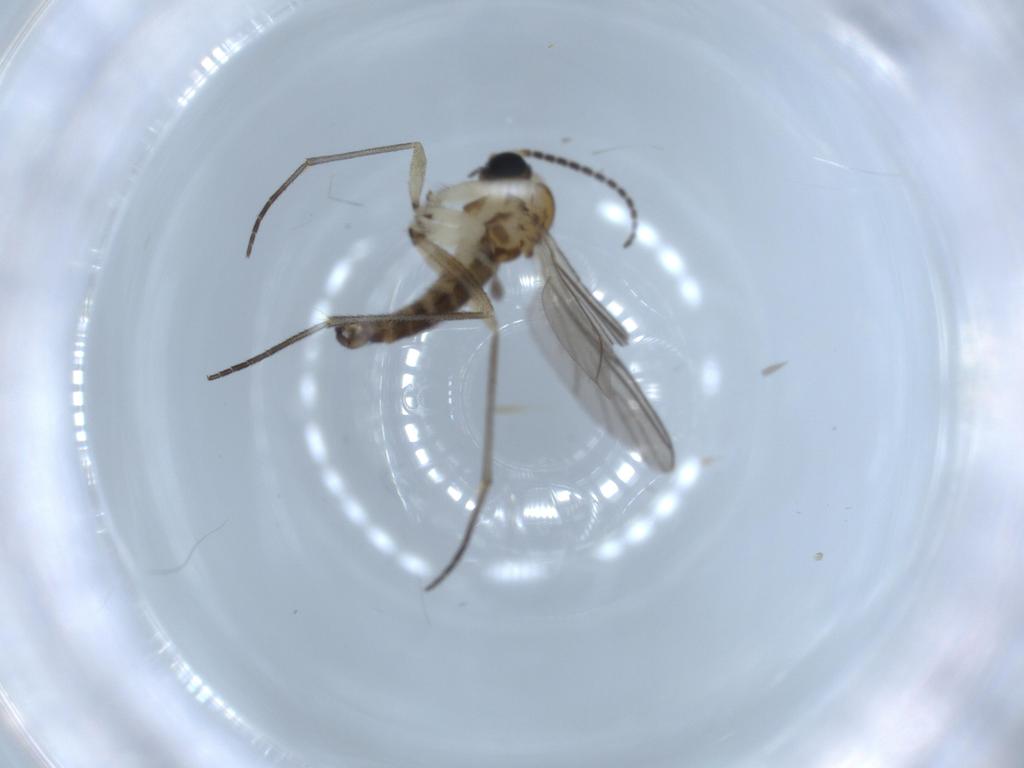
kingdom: Animalia
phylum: Arthropoda
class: Insecta
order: Diptera
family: Sciaridae
